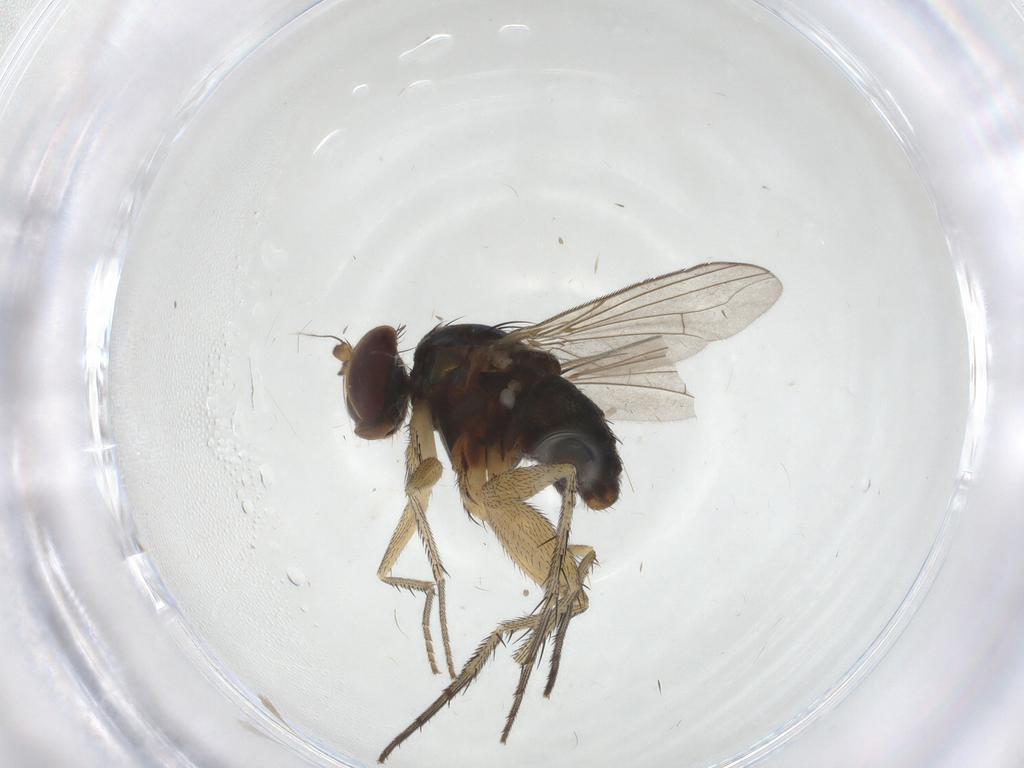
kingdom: Animalia
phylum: Arthropoda
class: Insecta
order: Diptera
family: Dolichopodidae
